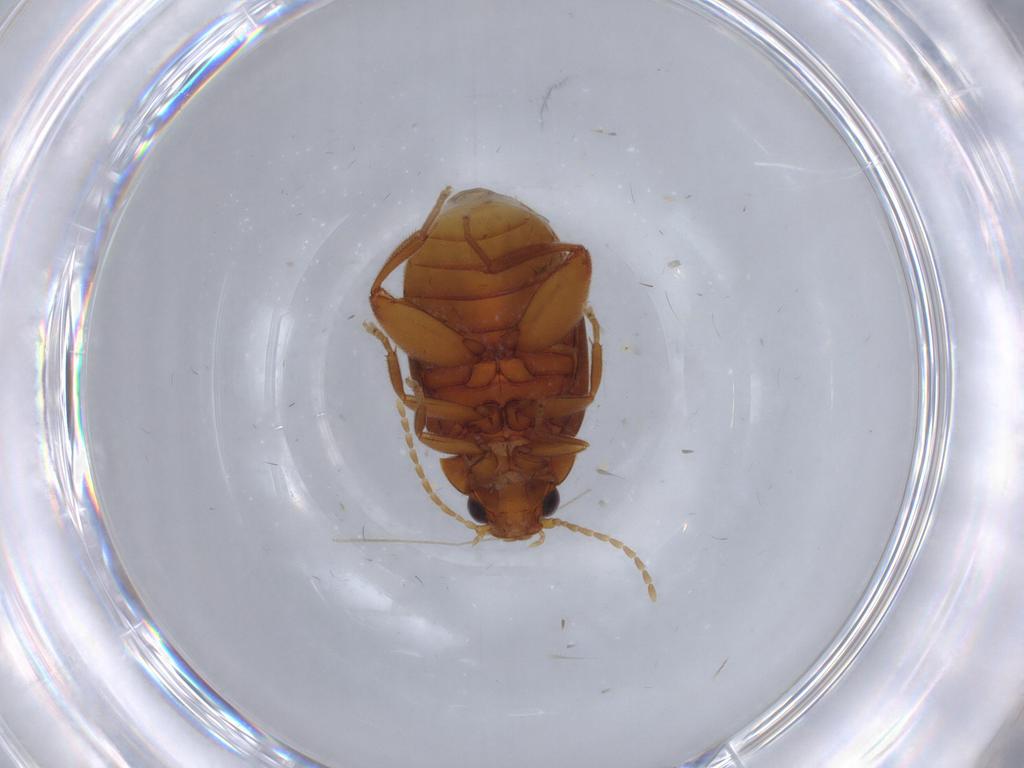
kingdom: Animalia
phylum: Arthropoda
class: Insecta
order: Coleoptera
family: Scirtidae
